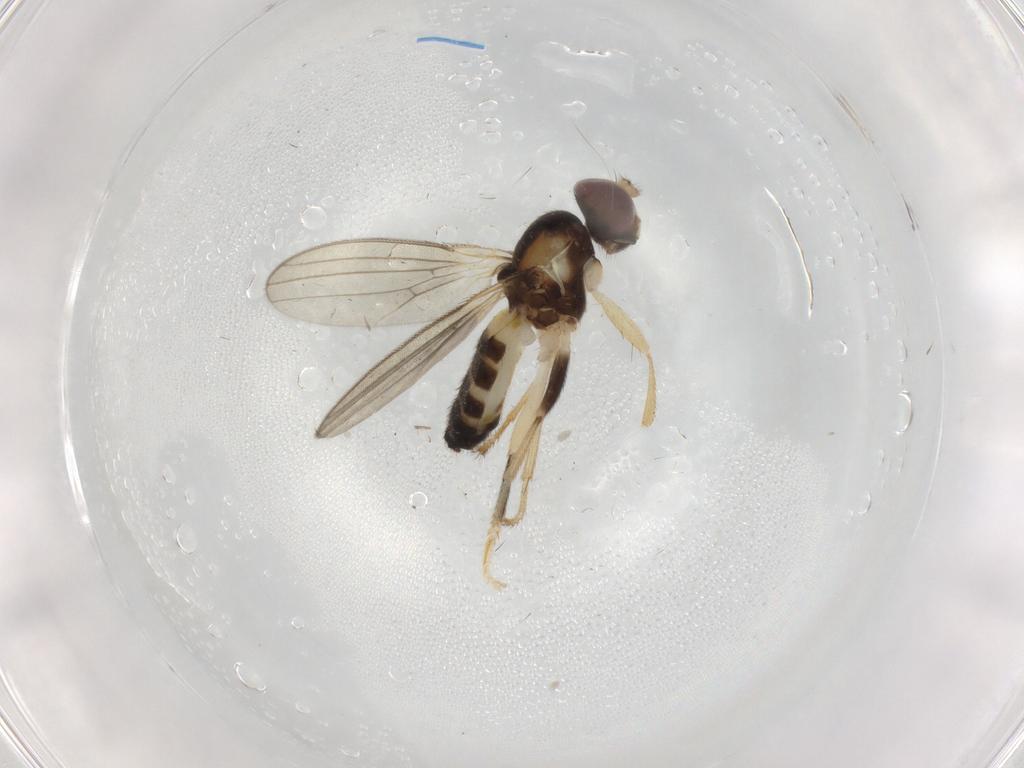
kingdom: Animalia
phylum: Arthropoda
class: Insecta
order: Diptera
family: Periscelididae
